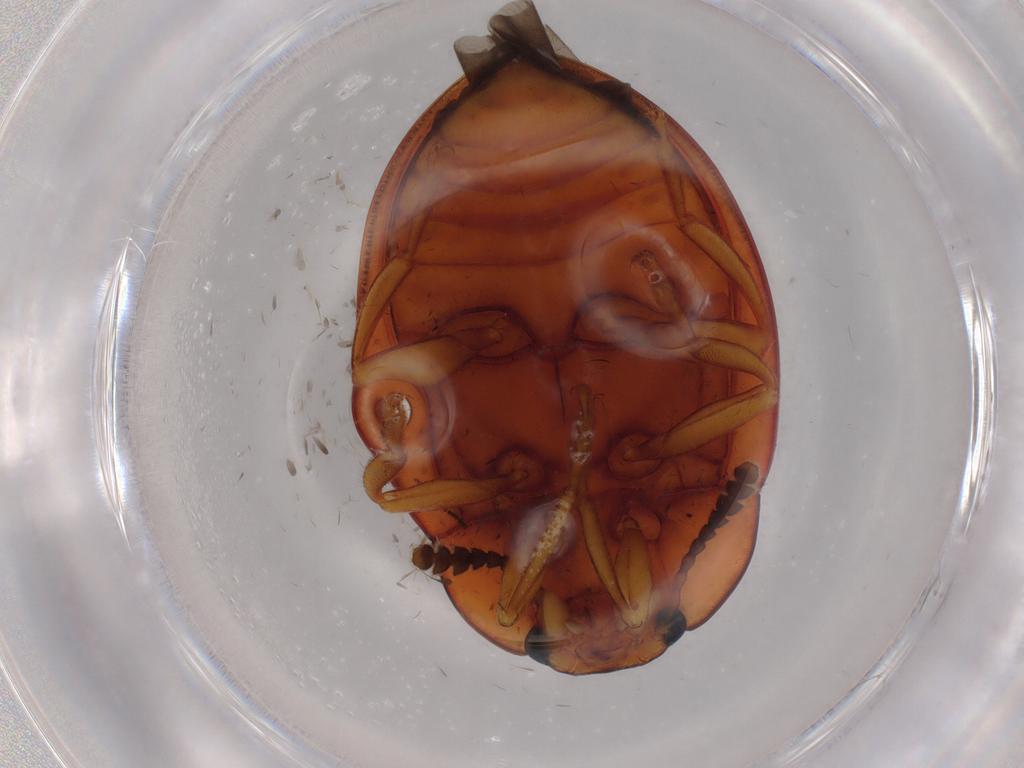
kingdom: Animalia
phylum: Arthropoda
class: Insecta
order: Coleoptera
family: Erotylidae
